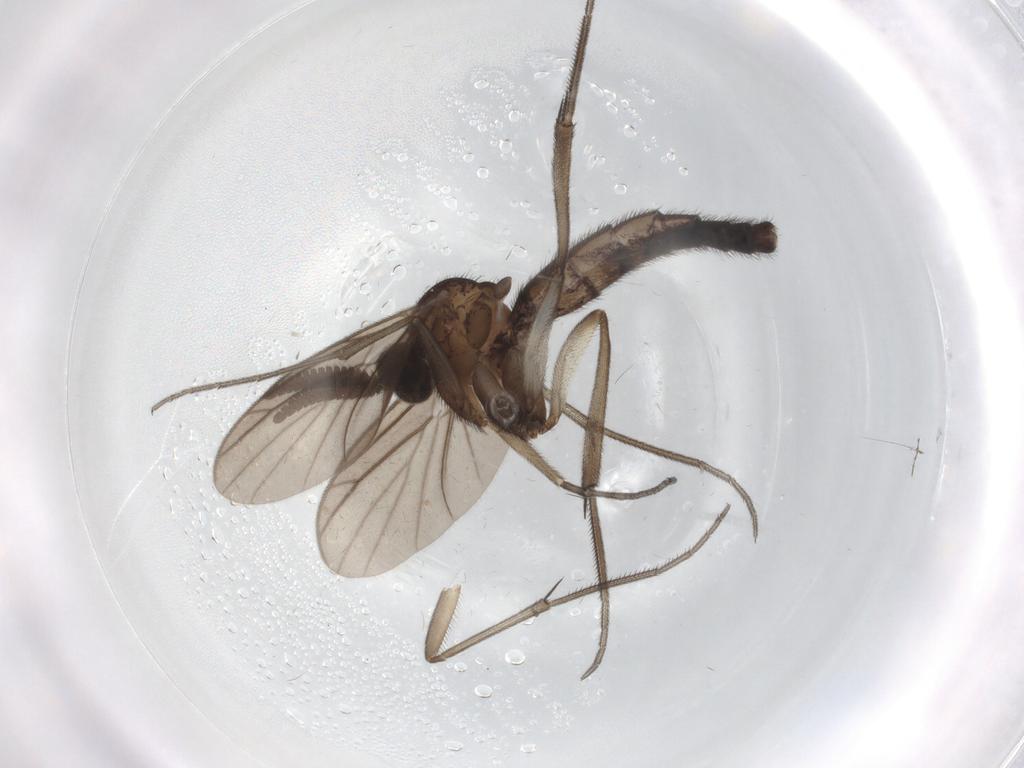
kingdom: Animalia
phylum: Arthropoda
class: Insecta
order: Diptera
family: Keroplatidae
